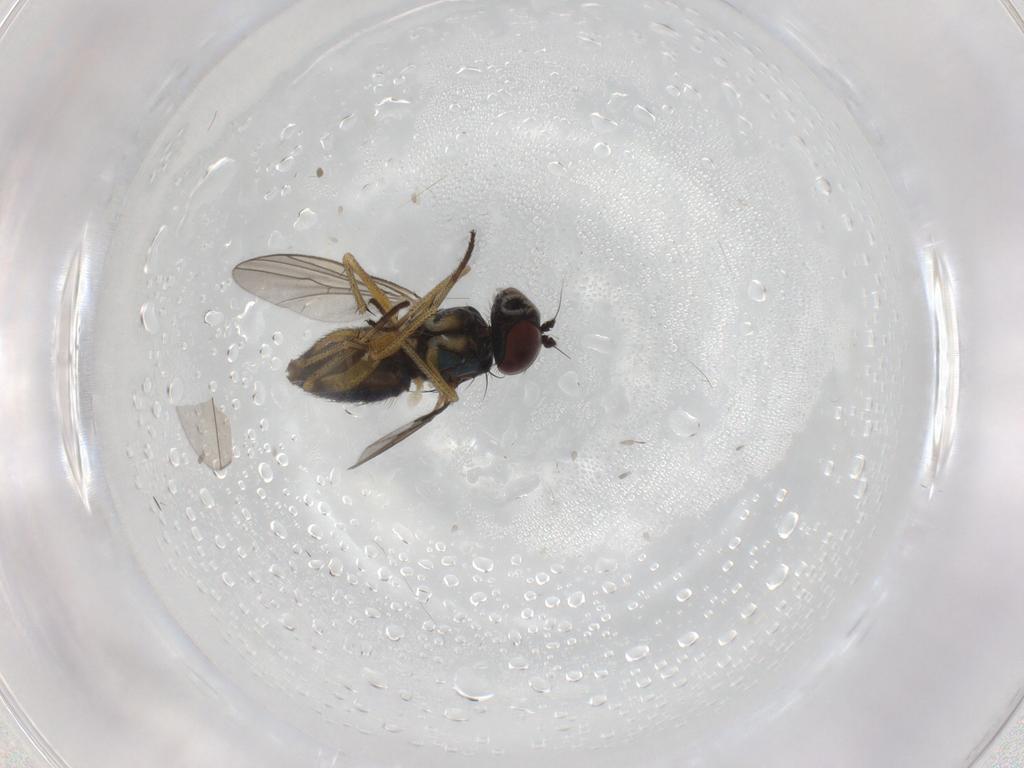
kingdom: Animalia
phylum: Arthropoda
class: Insecta
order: Diptera
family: Dolichopodidae
